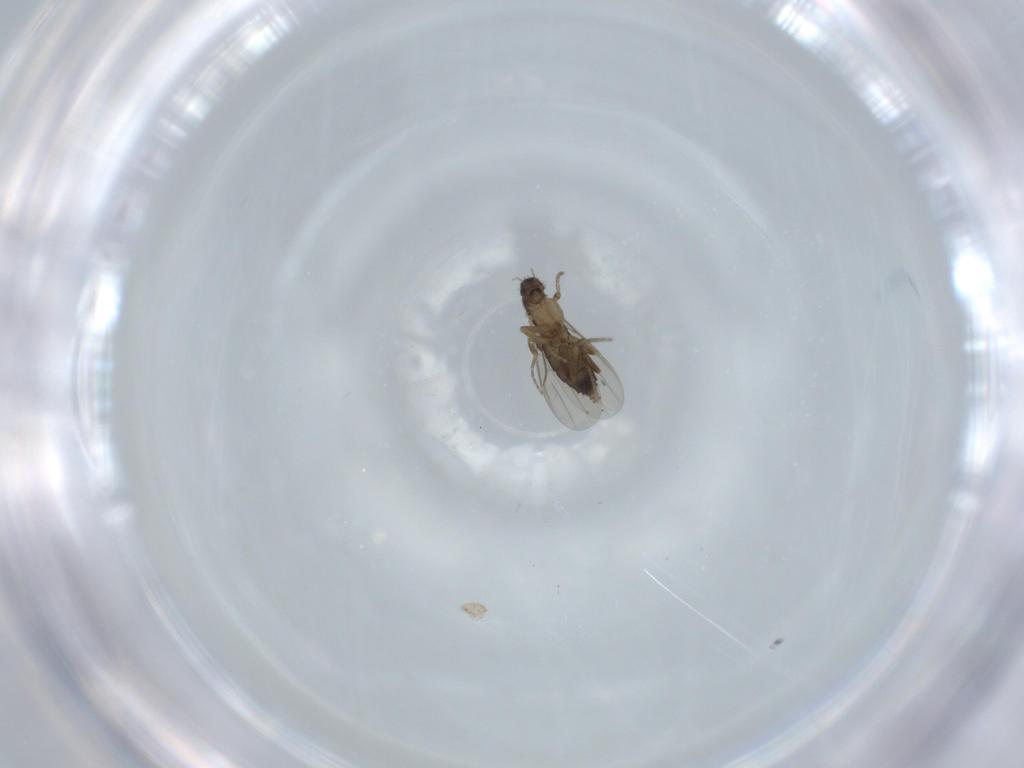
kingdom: Animalia
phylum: Arthropoda
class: Insecta
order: Diptera
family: Phoridae
